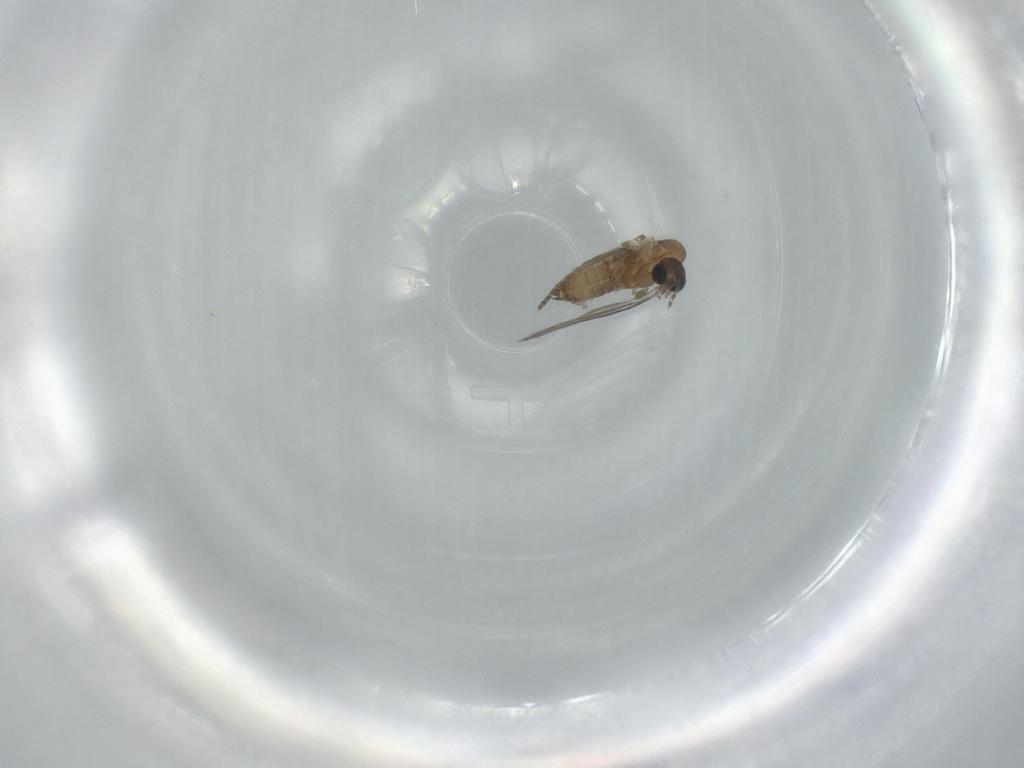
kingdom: Animalia
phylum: Arthropoda
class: Insecta
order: Diptera
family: Psychodidae
